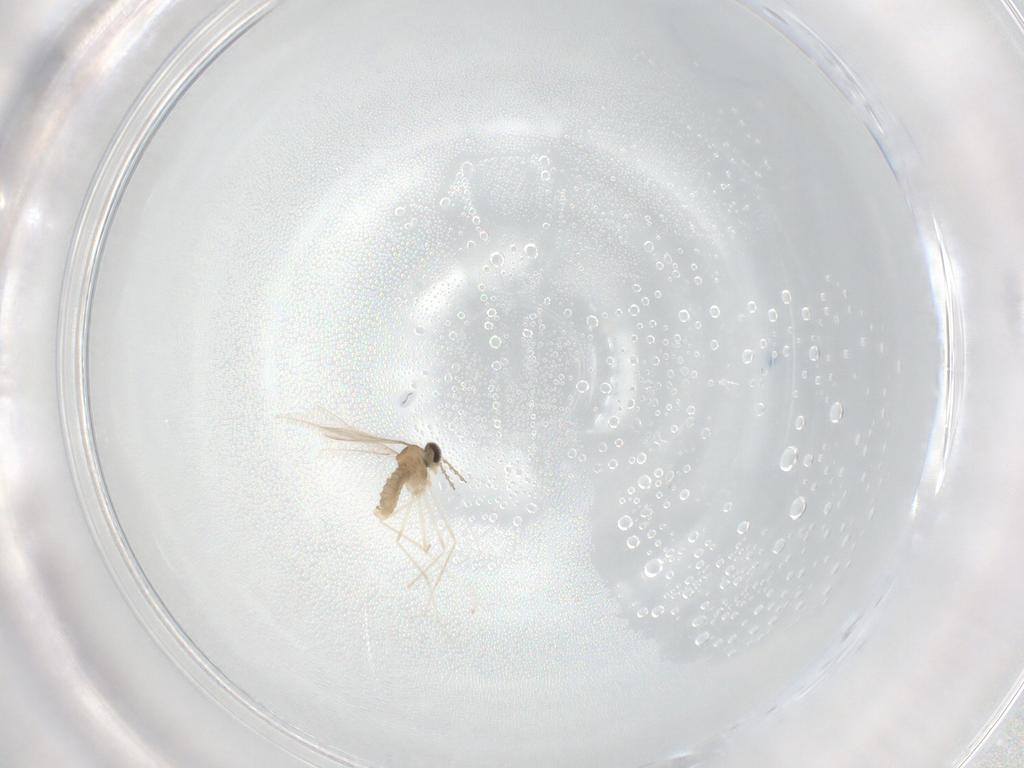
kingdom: Animalia
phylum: Arthropoda
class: Insecta
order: Diptera
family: Cecidomyiidae
